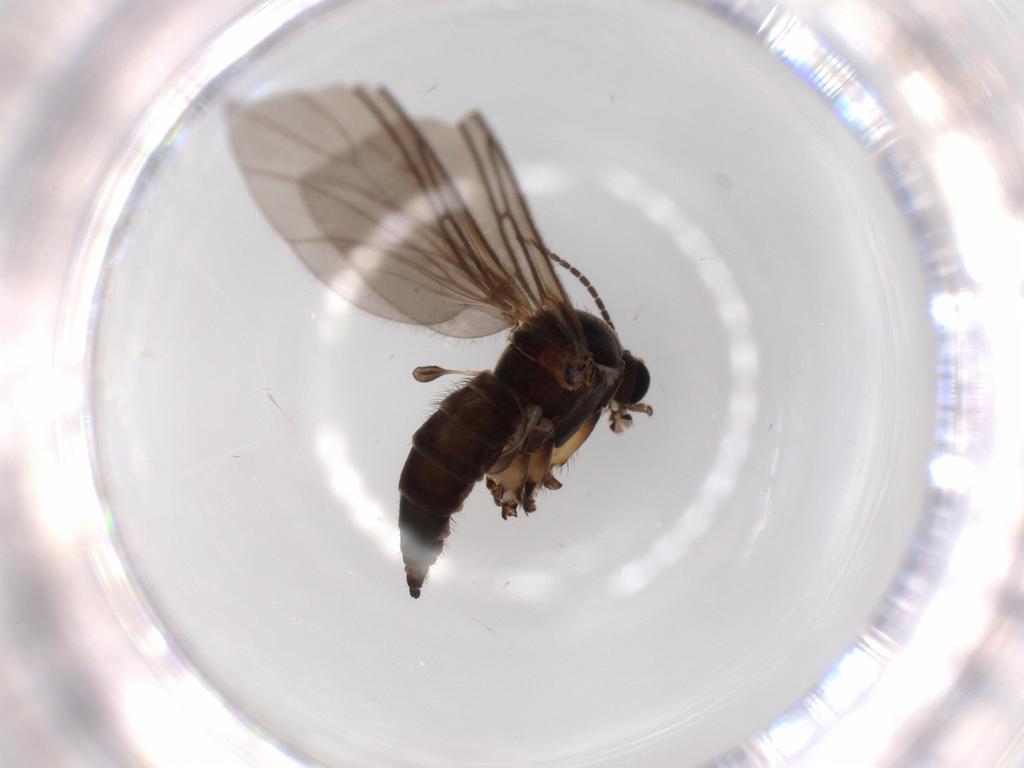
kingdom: Animalia
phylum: Arthropoda
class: Insecta
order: Diptera
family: Sciaridae
